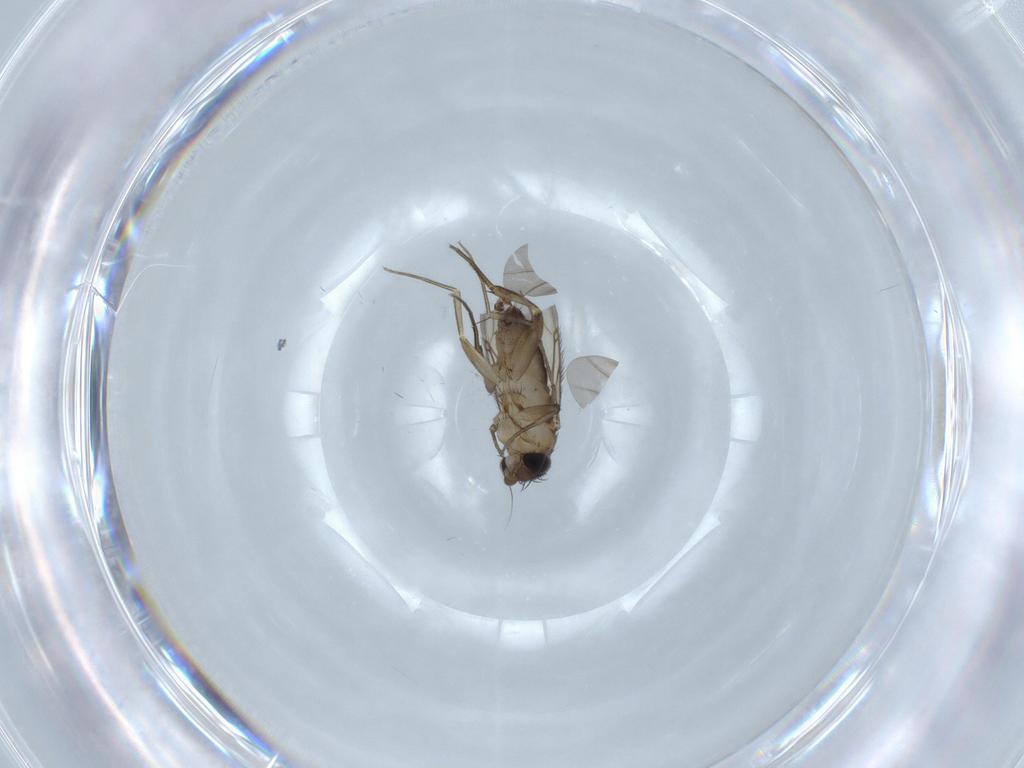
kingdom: Animalia
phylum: Arthropoda
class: Insecta
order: Diptera
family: Phoridae
